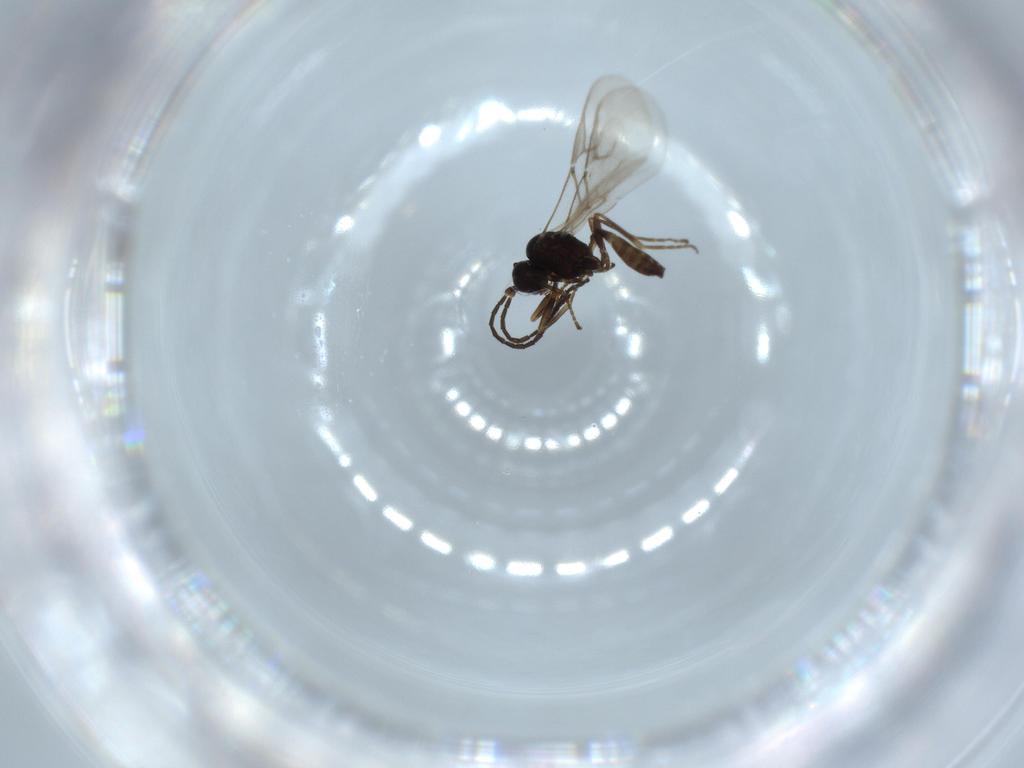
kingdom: Animalia
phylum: Arthropoda
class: Insecta
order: Hymenoptera
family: Braconidae
